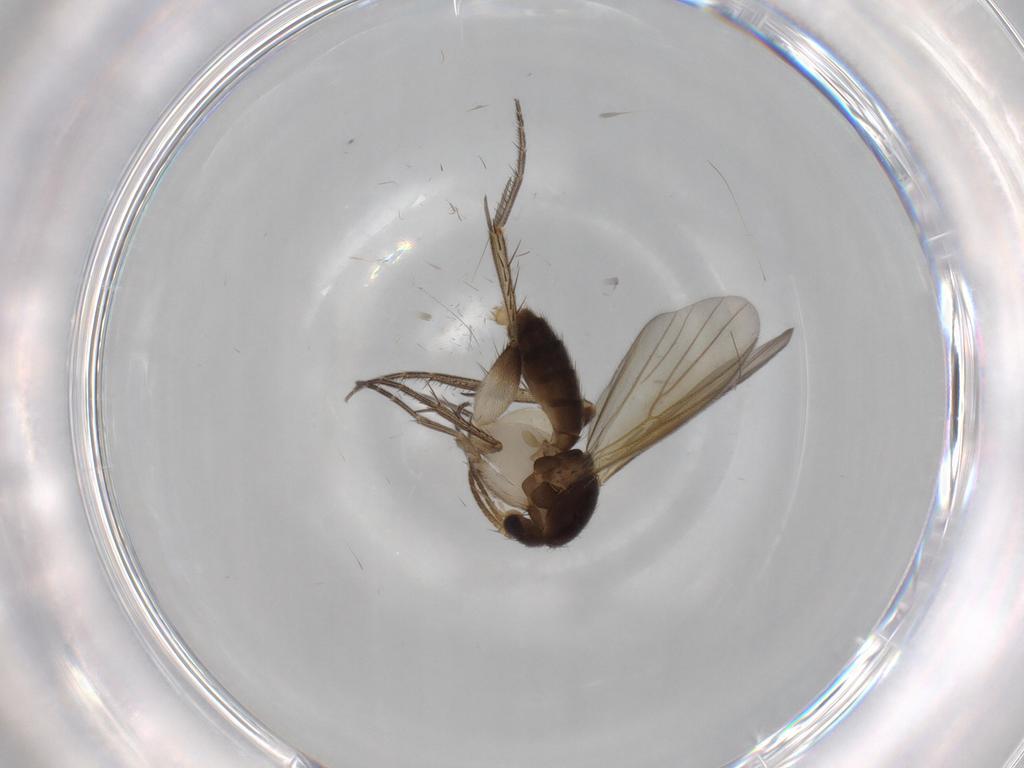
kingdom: Animalia
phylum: Arthropoda
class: Insecta
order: Diptera
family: Mycetophilidae
